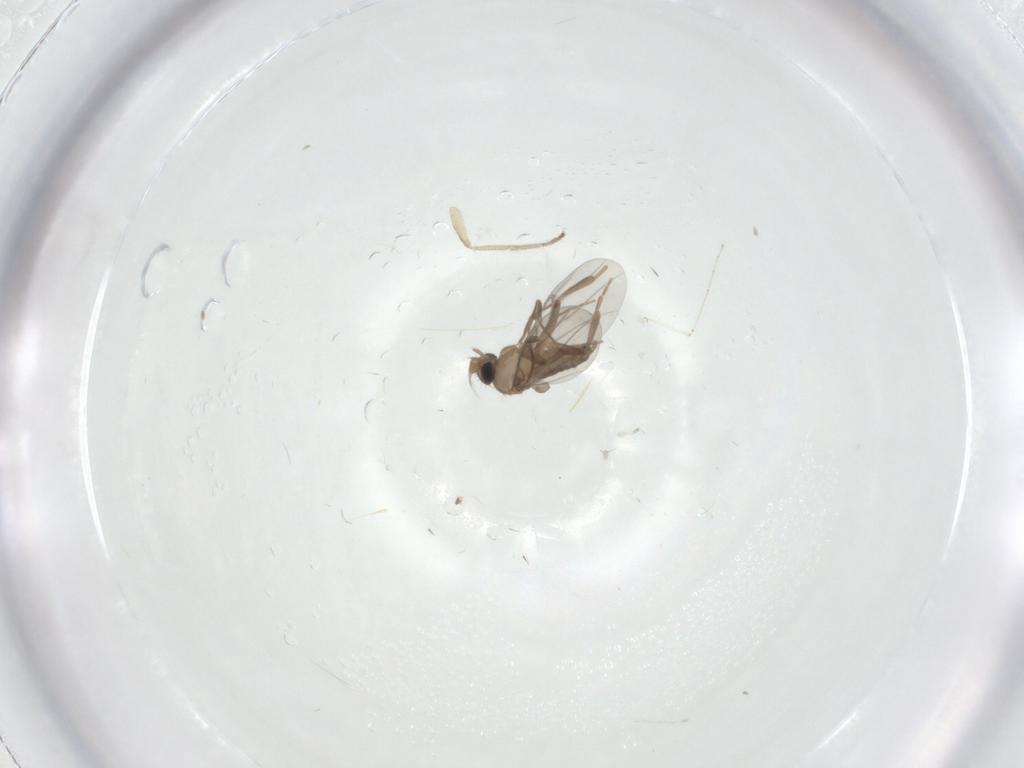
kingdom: Animalia
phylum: Arthropoda
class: Insecta
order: Diptera
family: Dolichopodidae
